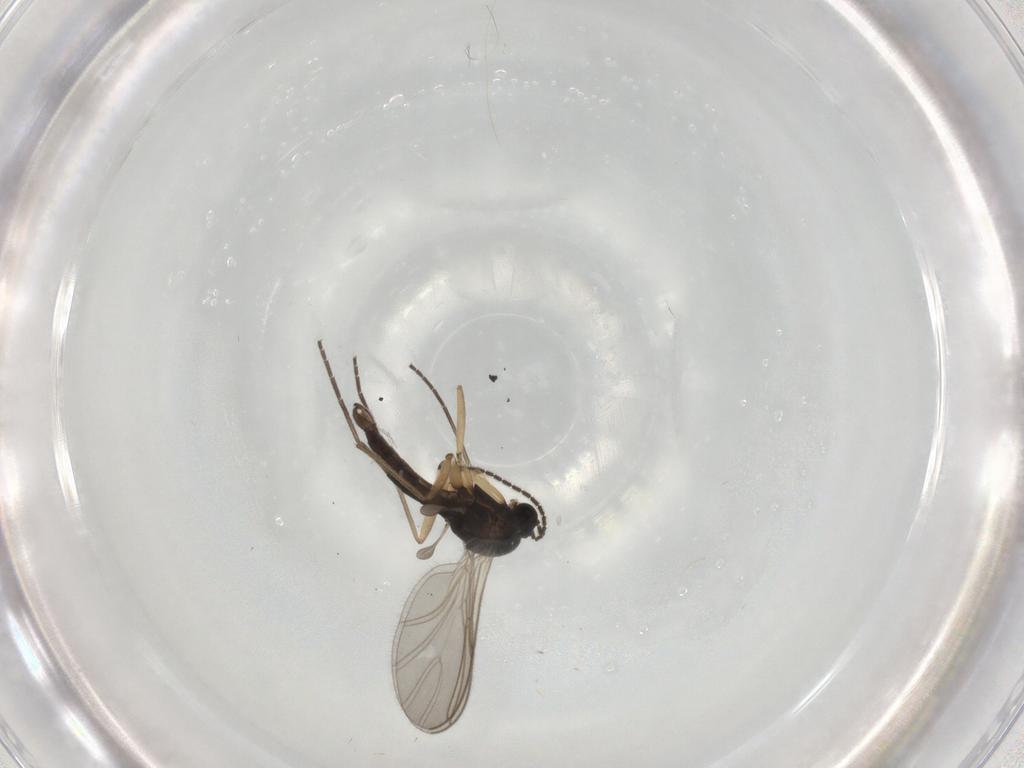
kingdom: Animalia
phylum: Arthropoda
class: Insecta
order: Diptera
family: Sciaridae
